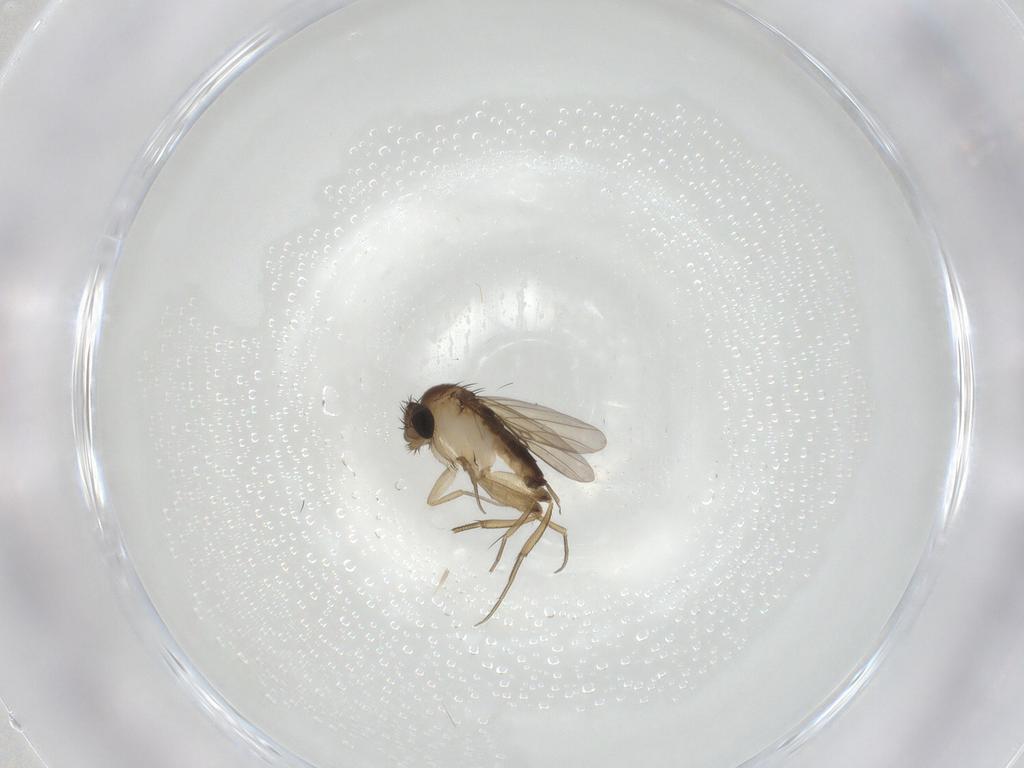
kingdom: Animalia
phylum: Arthropoda
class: Insecta
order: Diptera
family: Phoridae
